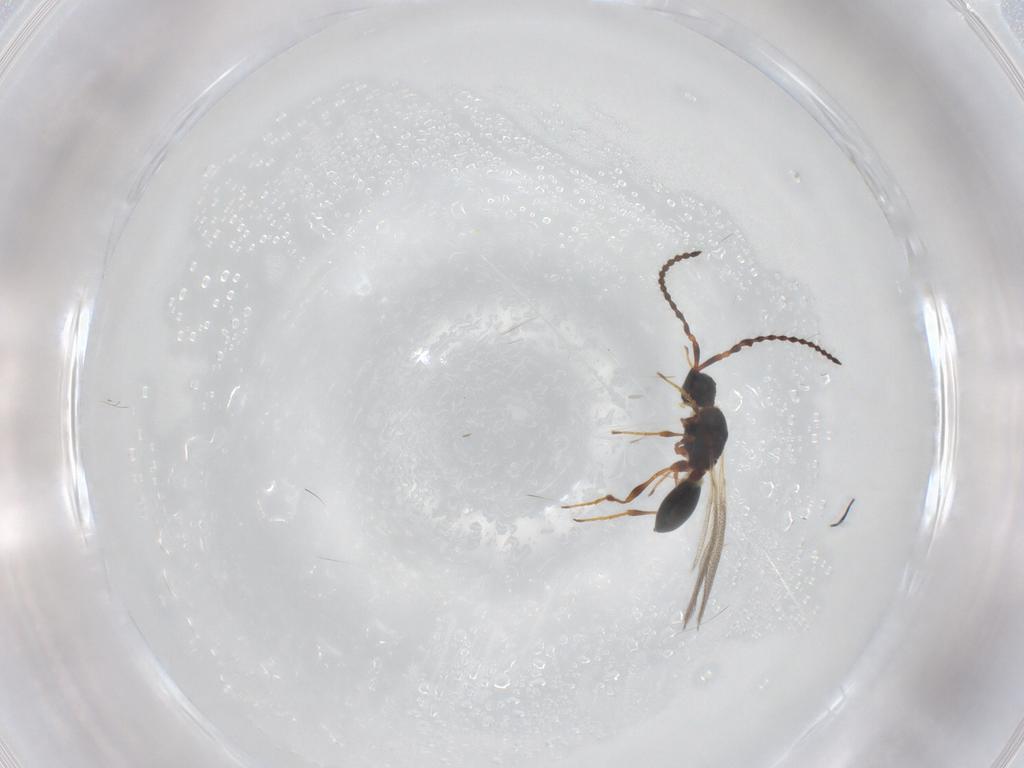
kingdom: Animalia
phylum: Arthropoda
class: Insecta
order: Hymenoptera
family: Diapriidae
